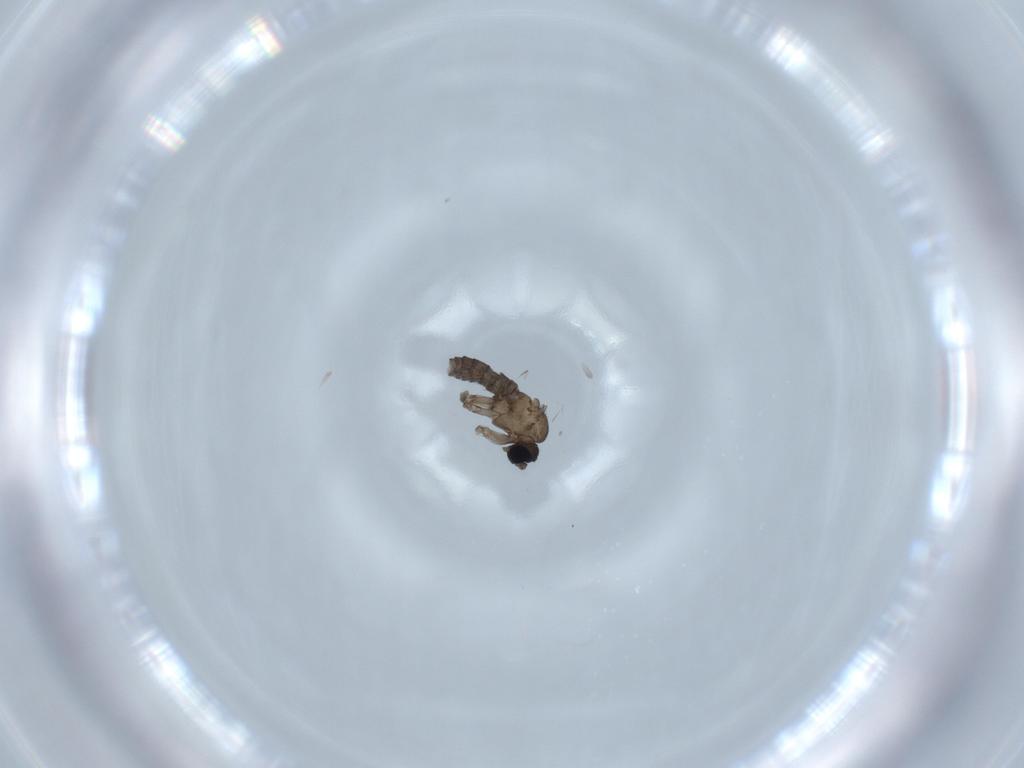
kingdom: Animalia
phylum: Arthropoda
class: Insecta
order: Diptera
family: Sciaridae
